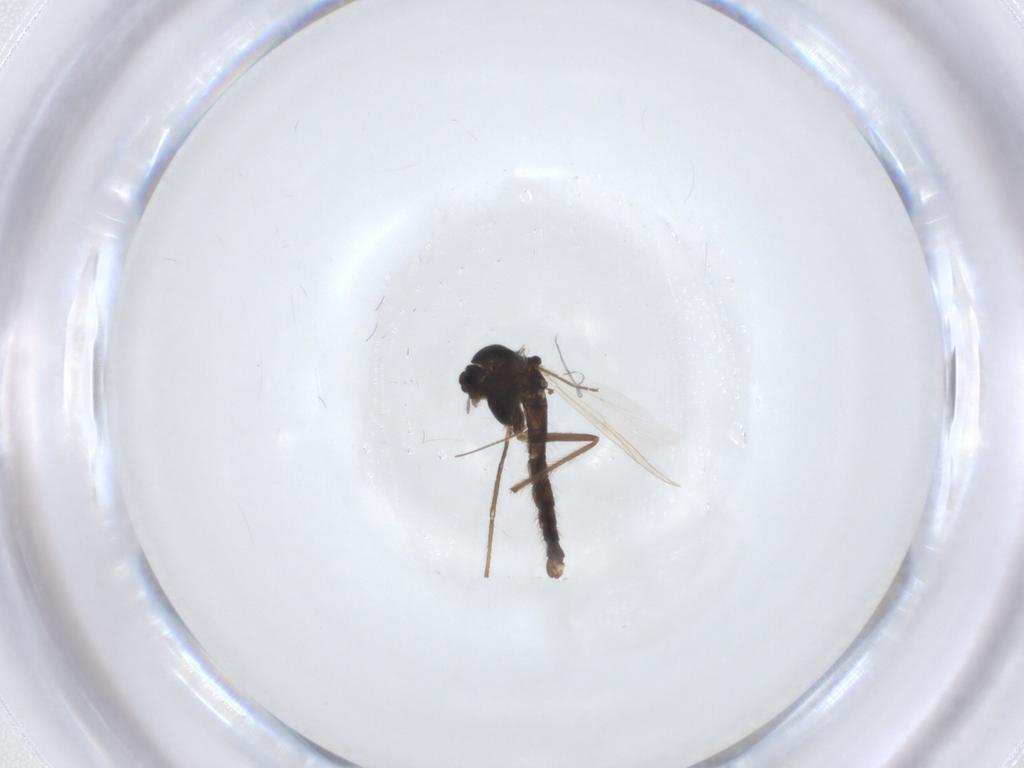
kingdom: Animalia
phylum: Arthropoda
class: Insecta
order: Diptera
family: Chironomidae
